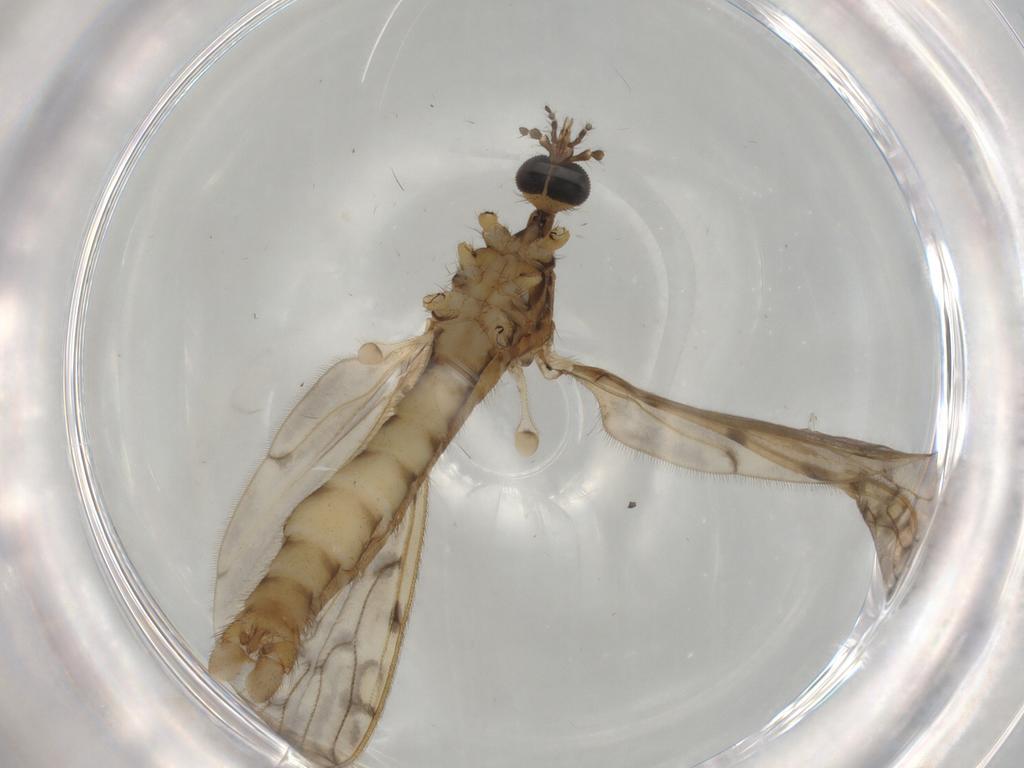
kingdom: Animalia
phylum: Arthropoda
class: Insecta
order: Diptera
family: Limoniidae
